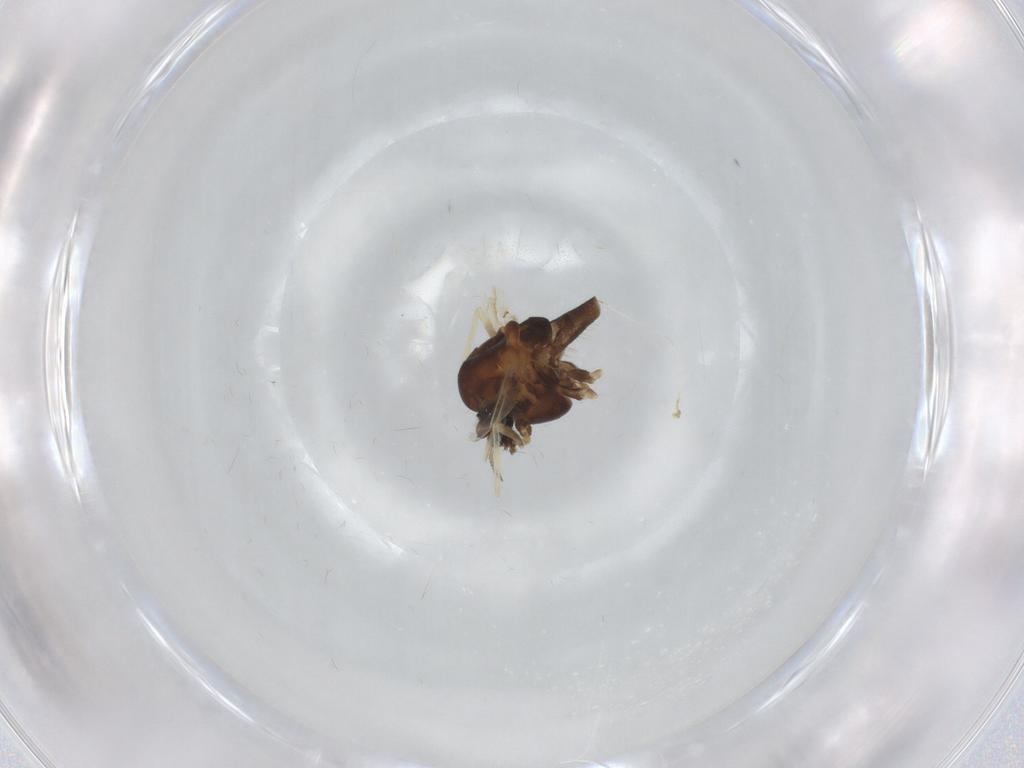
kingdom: Animalia
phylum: Arthropoda
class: Insecta
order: Diptera
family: Chironomidae
